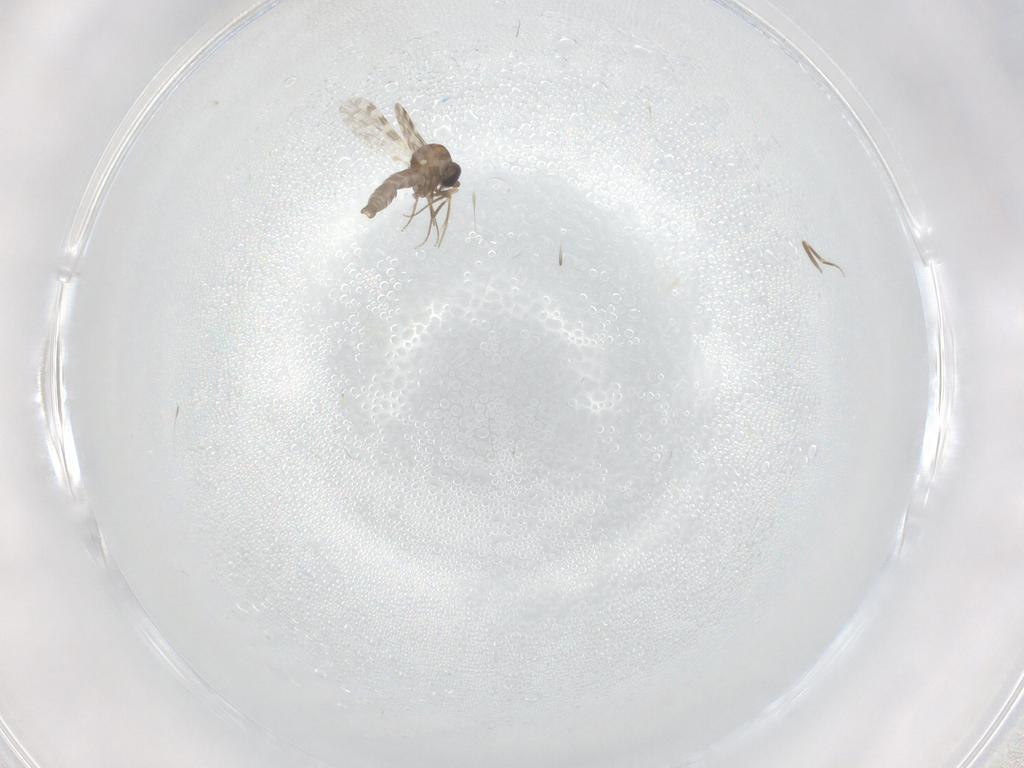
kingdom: Animalia
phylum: Arthropoda
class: Insecta
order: Diptera
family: Ceratopogonidae
